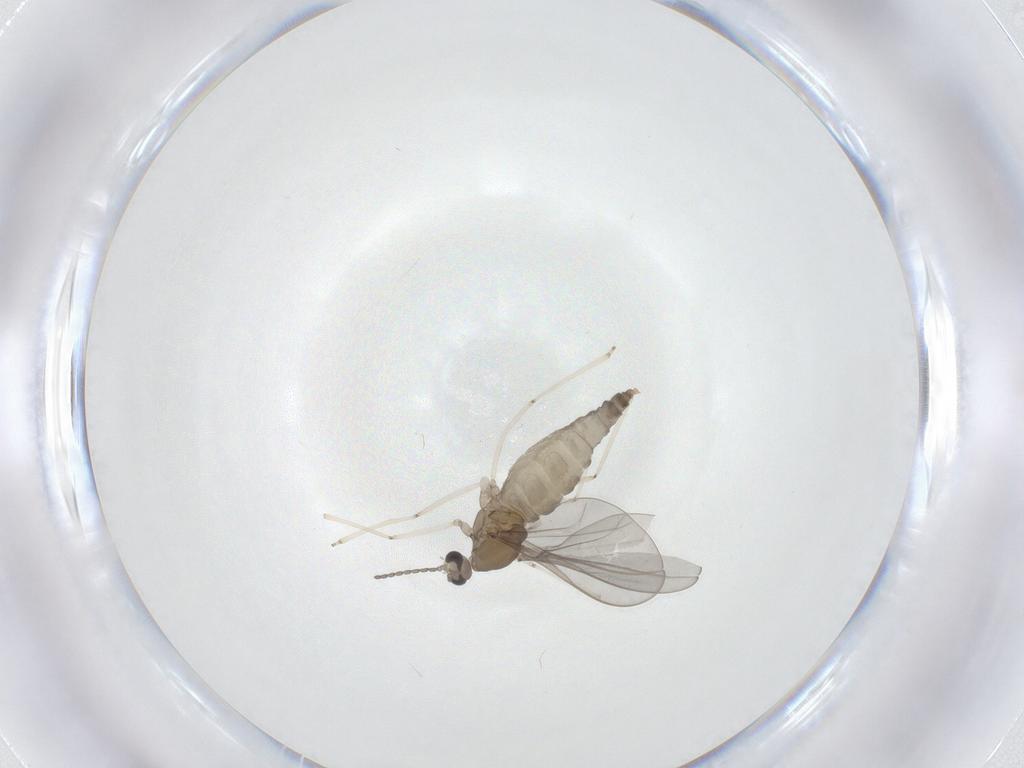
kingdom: Animalia
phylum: Arthropoda
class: Insecta
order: Diptera
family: Cecidomyiidae
